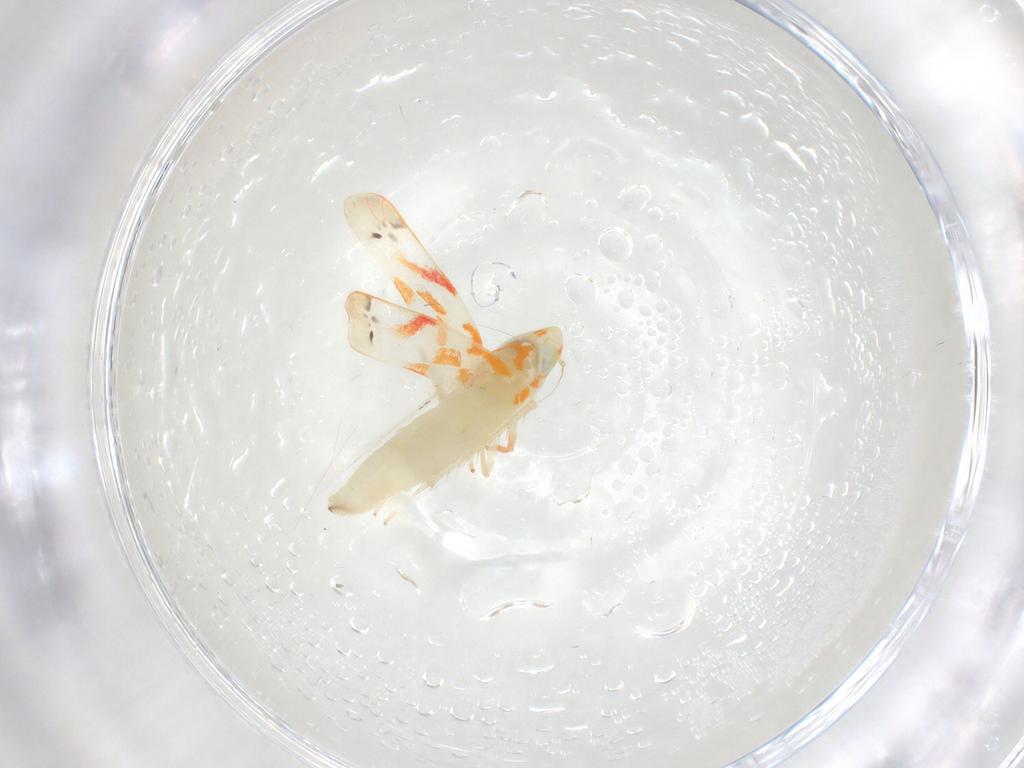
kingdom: Animalia
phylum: Arthropoda
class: Insecta
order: Hemiptera
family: Cicadellidae
